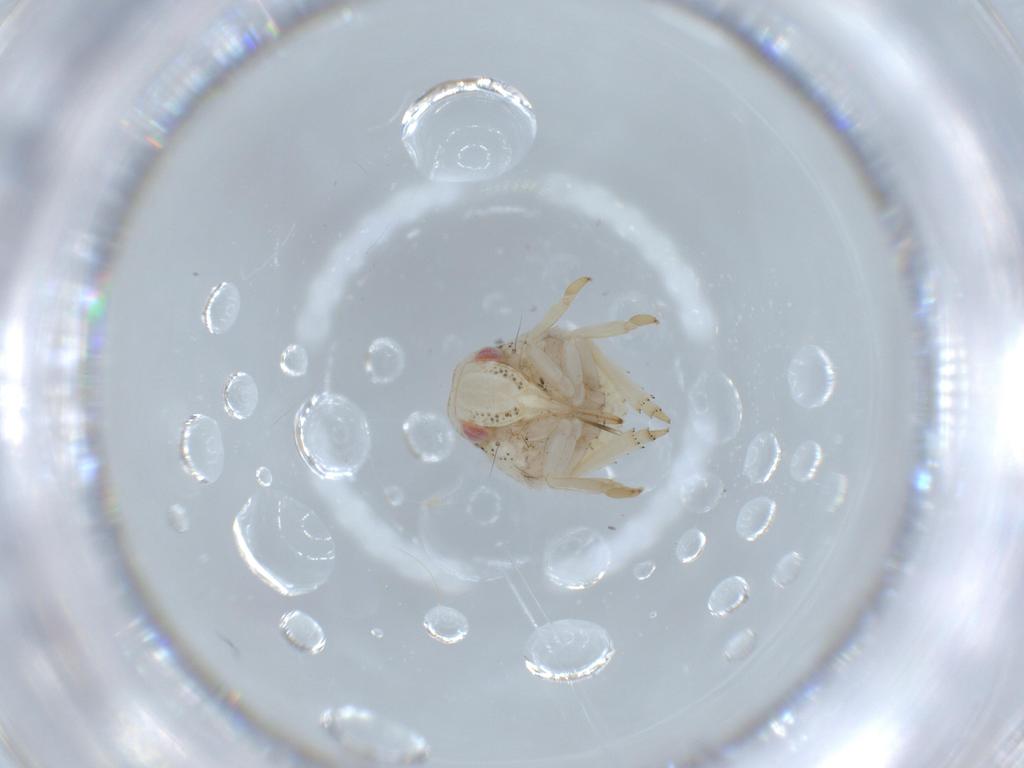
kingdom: Animalia
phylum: Arthropoda
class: Insecta
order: Hemiptera
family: Acanaloniidae
